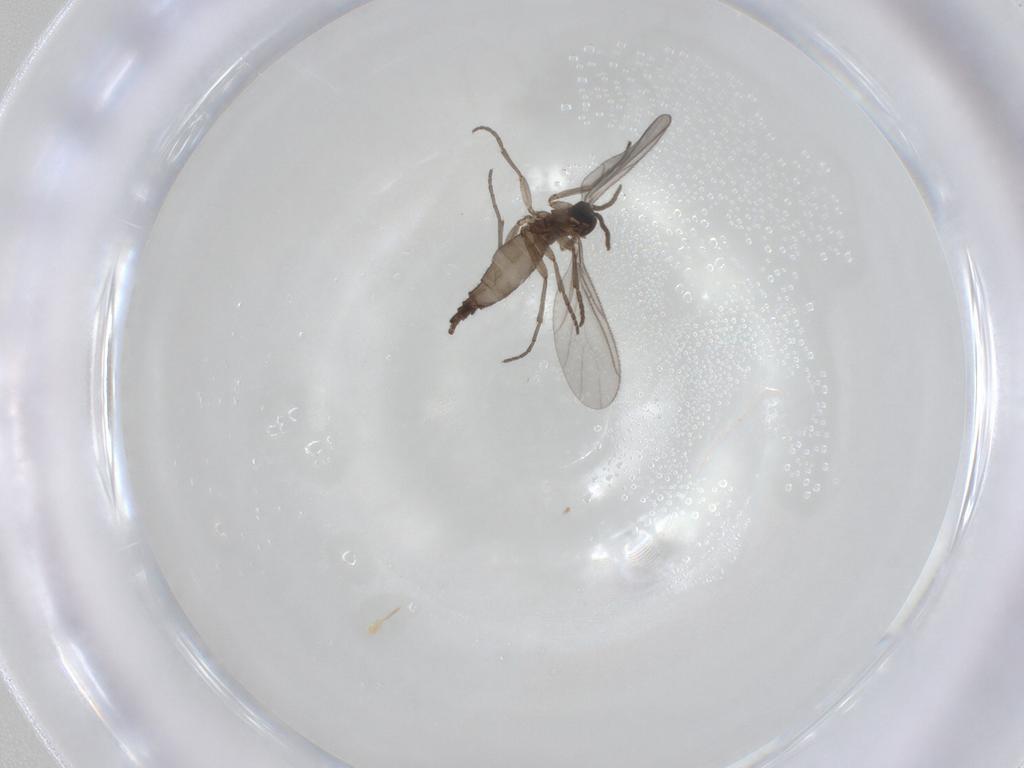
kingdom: Animalia
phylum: Arthropoda
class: Insecta
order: Diptera
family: Sciaridae
